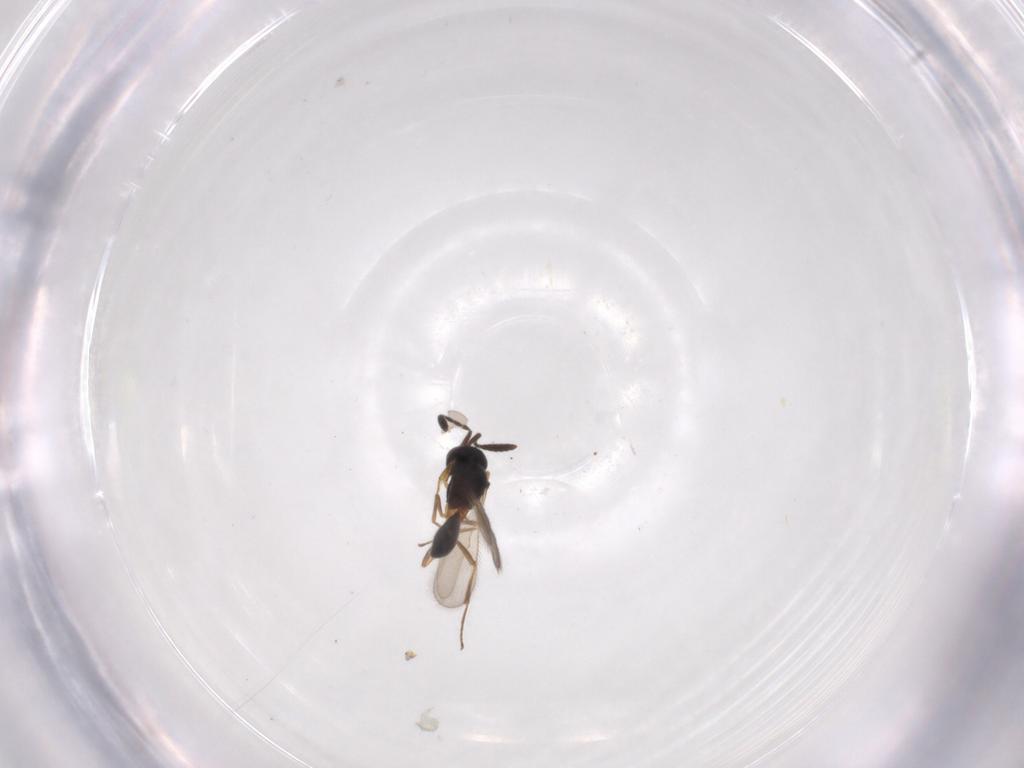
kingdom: Animalia
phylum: Arthropoda
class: Insecta
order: Hymenoptera
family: Scelionidae
